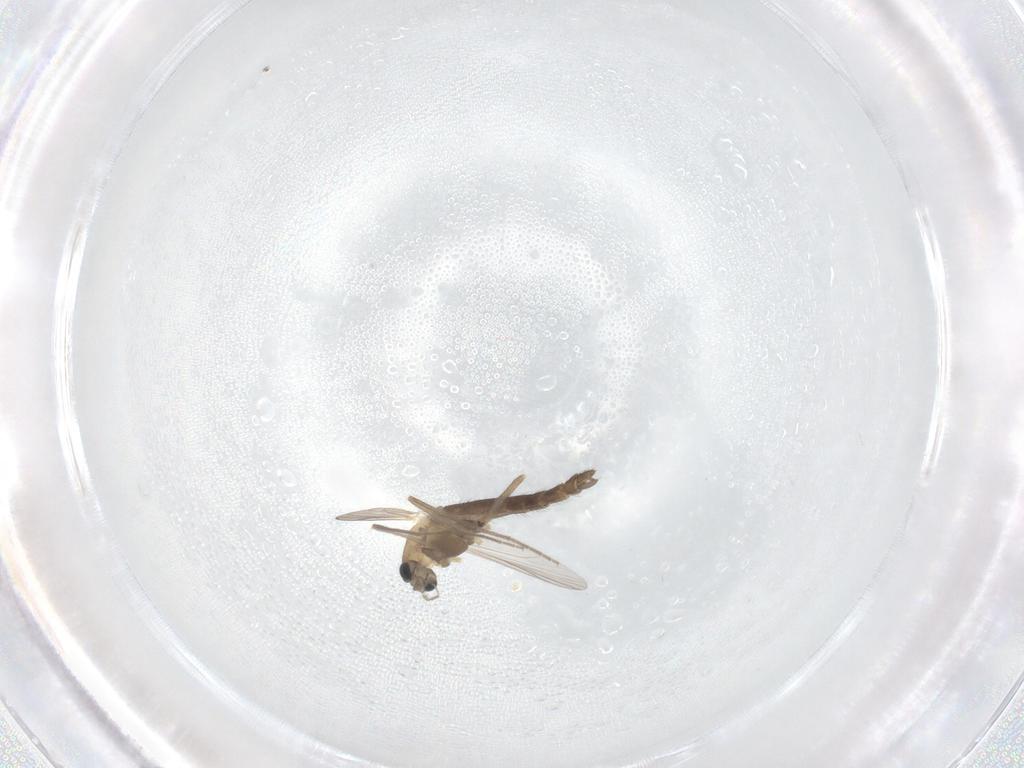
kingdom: Animalia
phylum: Arthropoda
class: Insecta
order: Diptera
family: Chironomidae
